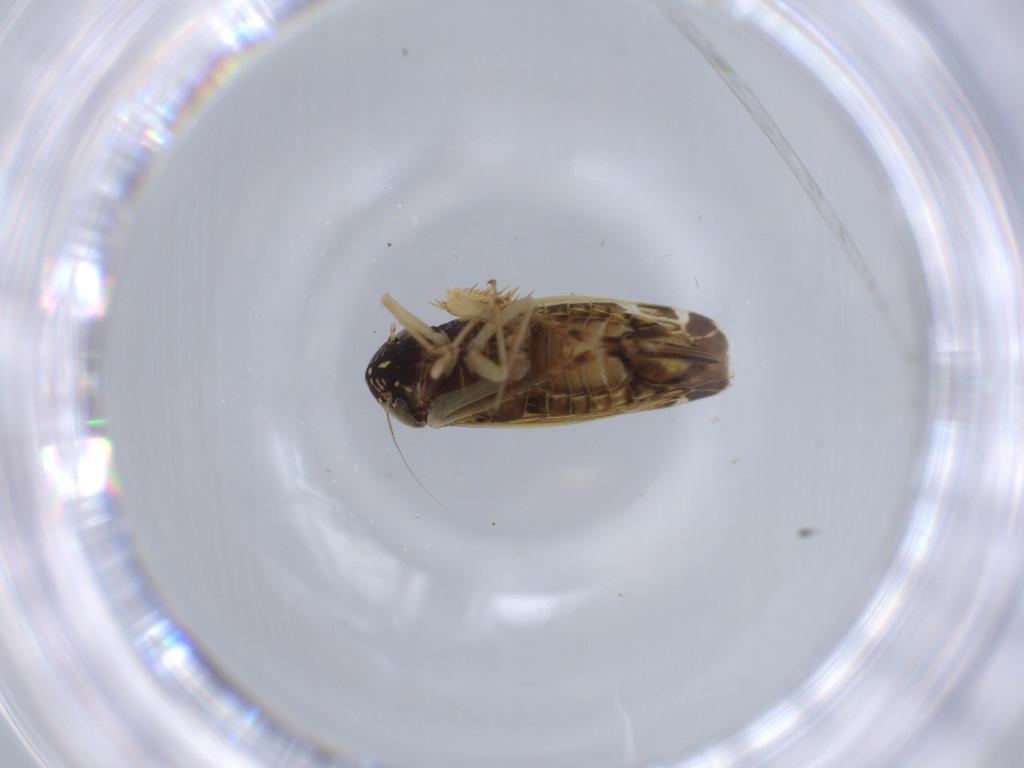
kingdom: Animalia
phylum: Arthropoda
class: Insecta
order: Hemiptera
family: Cicadellidae
